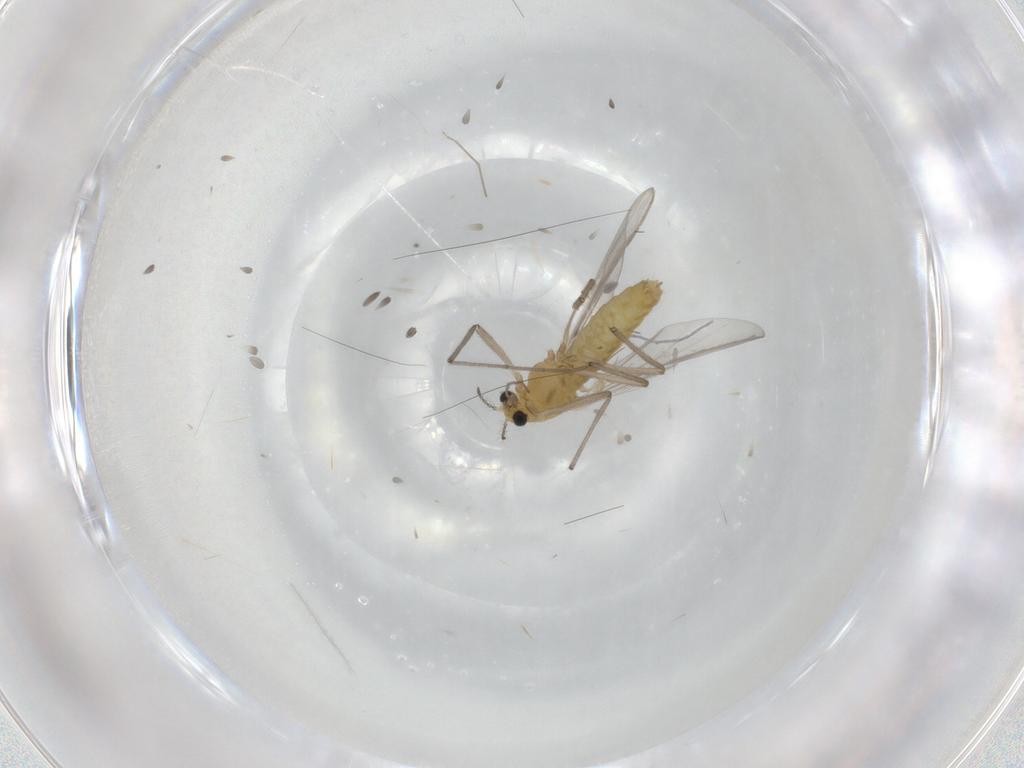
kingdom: Animalia
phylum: Arthropoda
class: Insecta
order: Diptera
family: Chironomidae
